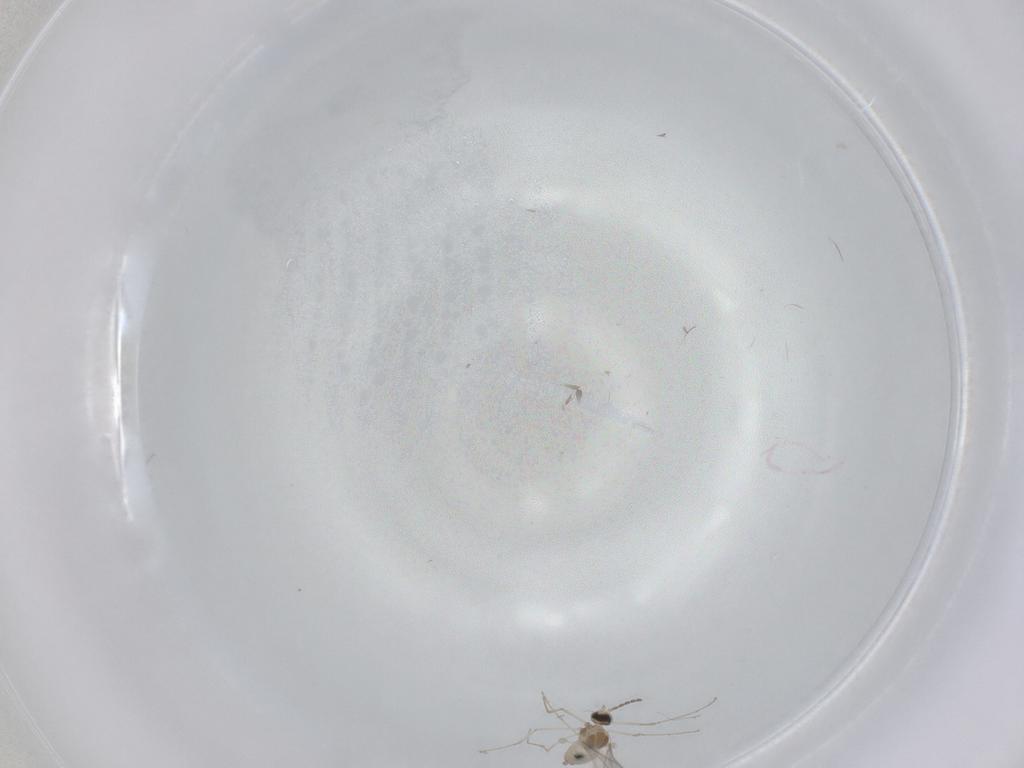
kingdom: Animalia
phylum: Arthropoda
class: Insecta
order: Diptera
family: Cecidomyiidae
